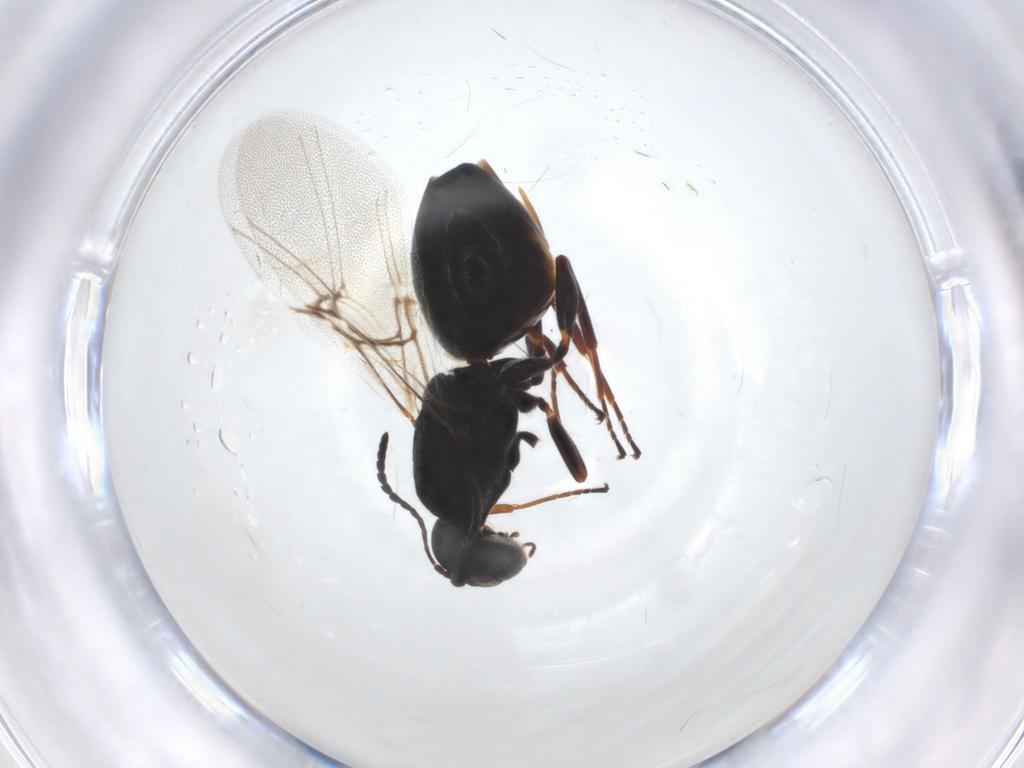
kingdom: Animalia
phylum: Arthropoda
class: Insecta
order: Hymenoptera
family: Cynipidae
